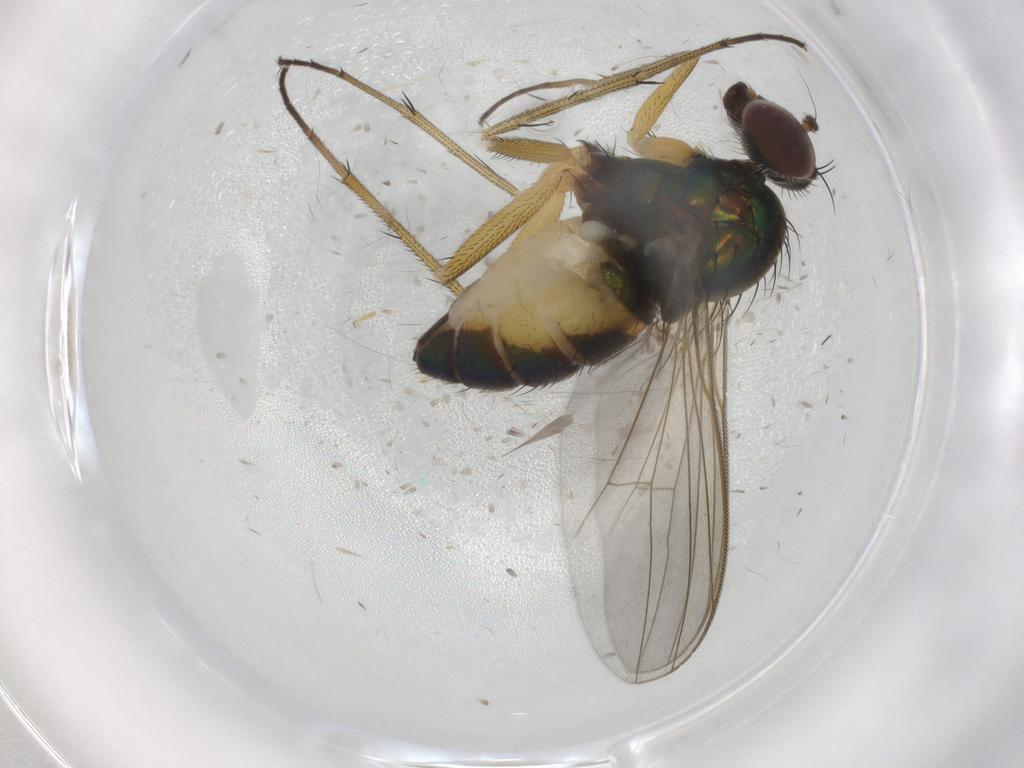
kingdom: Animalia
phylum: Arthropoda
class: Insecta
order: Diptera
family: Dolichopodidae
